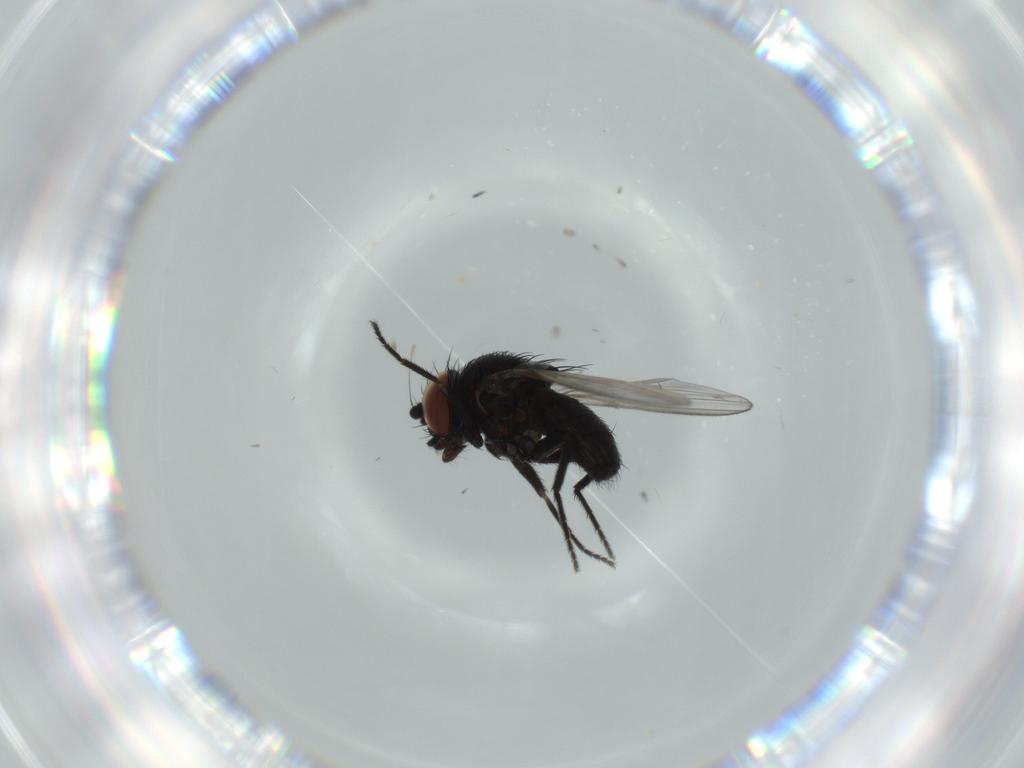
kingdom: Animalia
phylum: Arthropoda
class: Insecta
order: Diptera
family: Milichiidae
